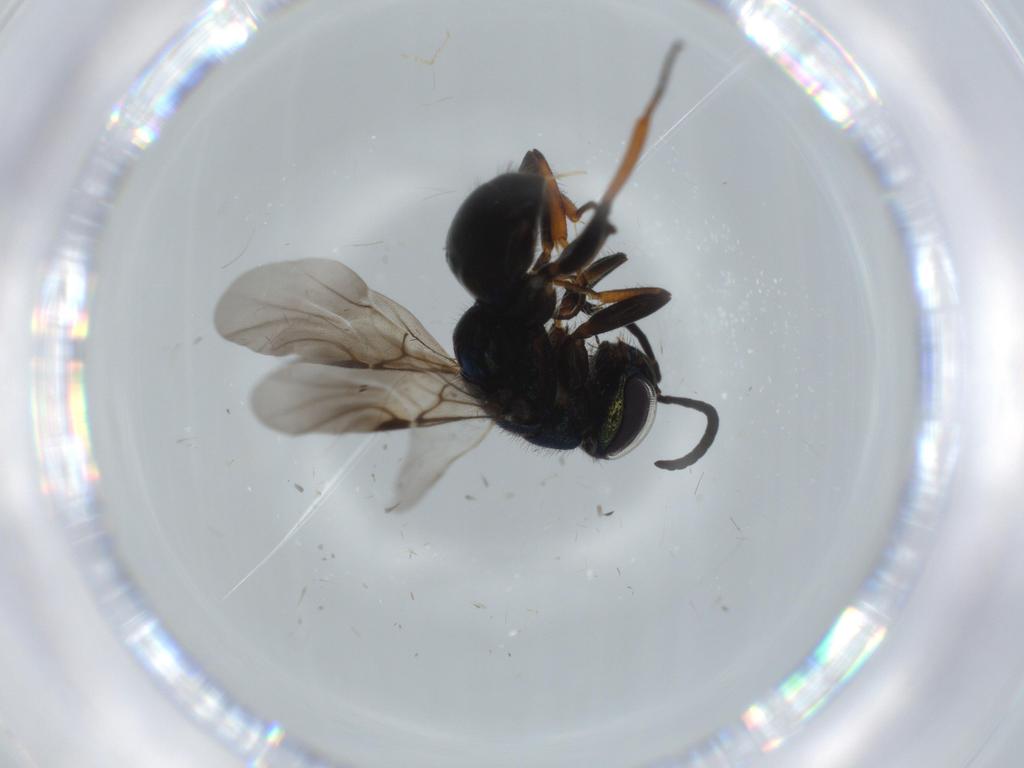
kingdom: Animalia
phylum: Arthropoda
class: Insecta
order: Hymenoptera
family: Chrysididae
